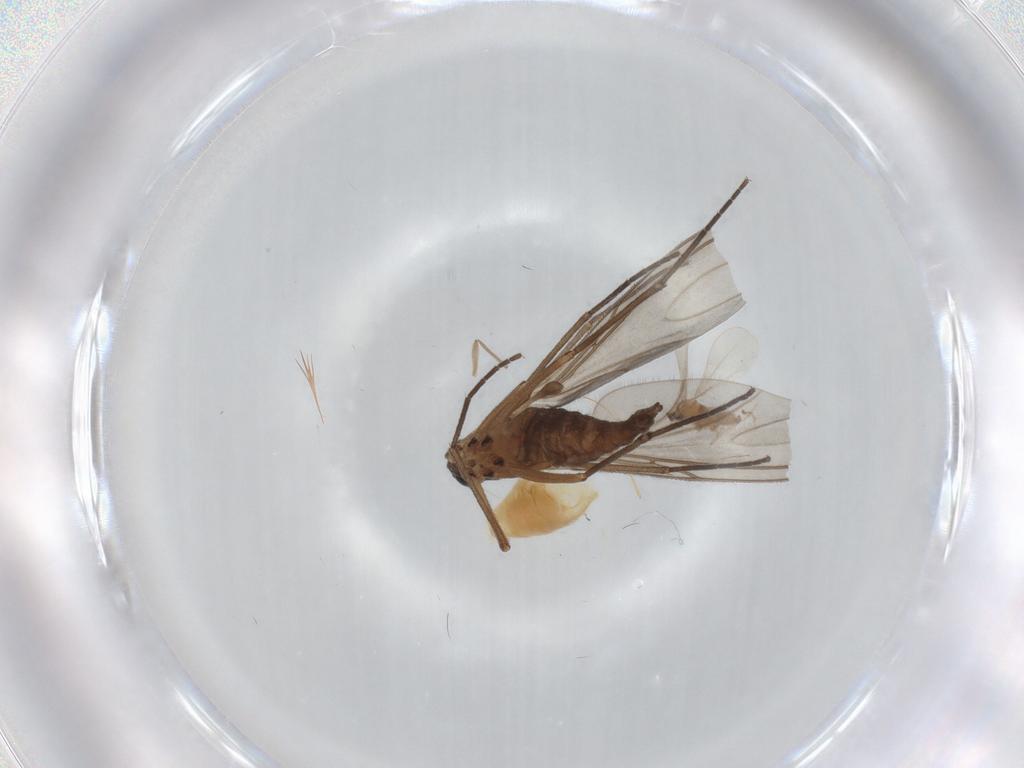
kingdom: Animalia
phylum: Arthropoda
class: Insecta
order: Diptera
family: Sciaridae
